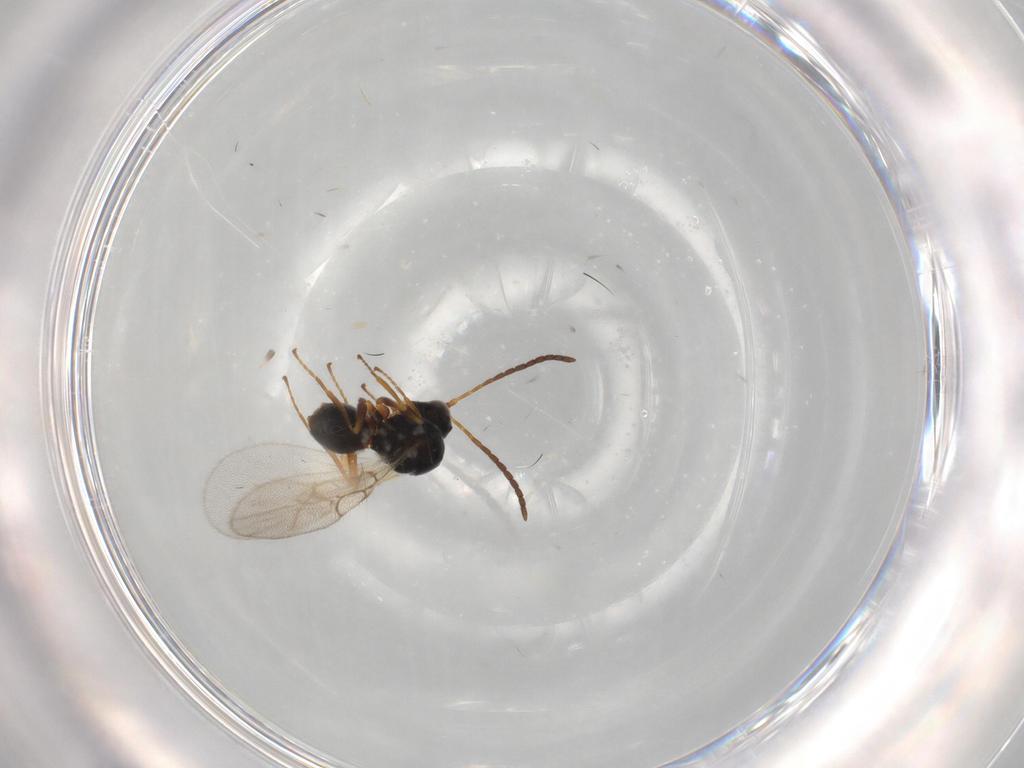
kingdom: Animalia
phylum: Arthropoda
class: Insecta
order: Hymenoptera
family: Figitidae
